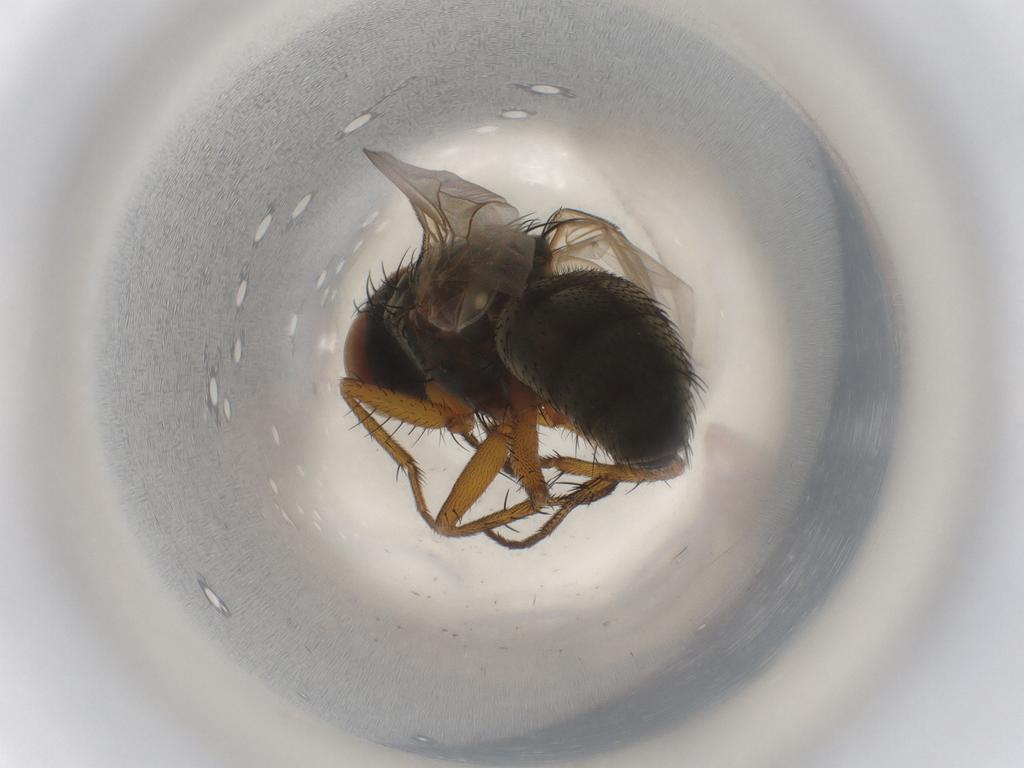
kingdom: Animalia
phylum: Arthropoda
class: Insecta
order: Diptera
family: Sarcophagidae
